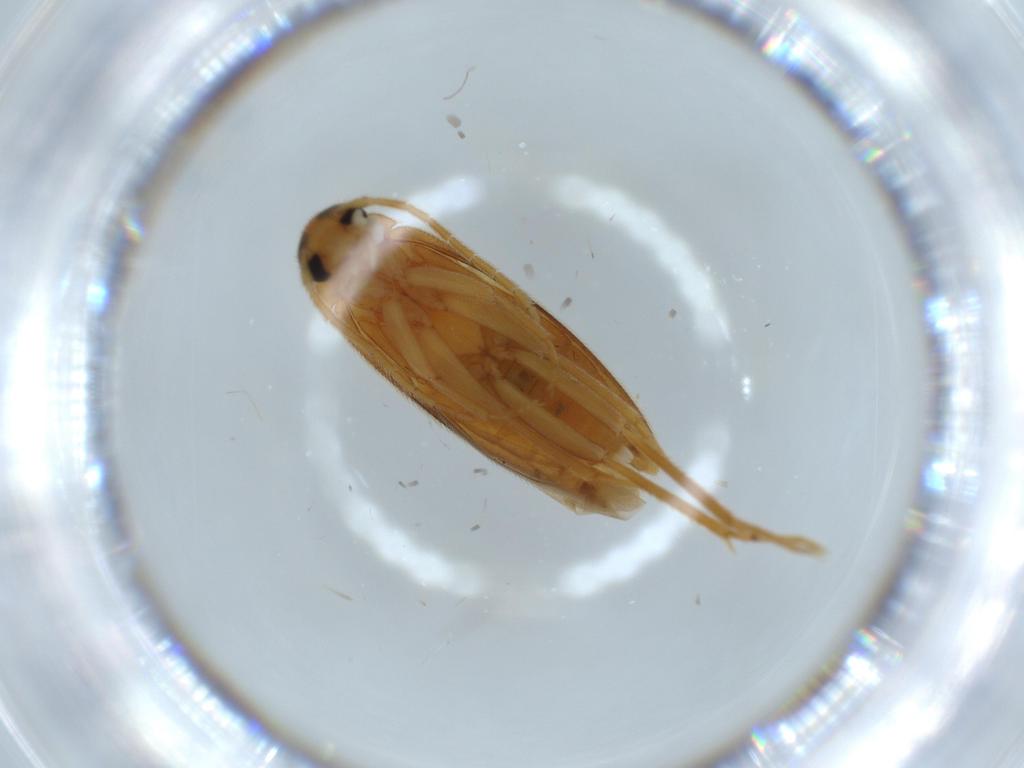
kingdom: Animalia
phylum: Arthropoda
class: Insecta
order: Coleoptera
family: Scraptiidae
